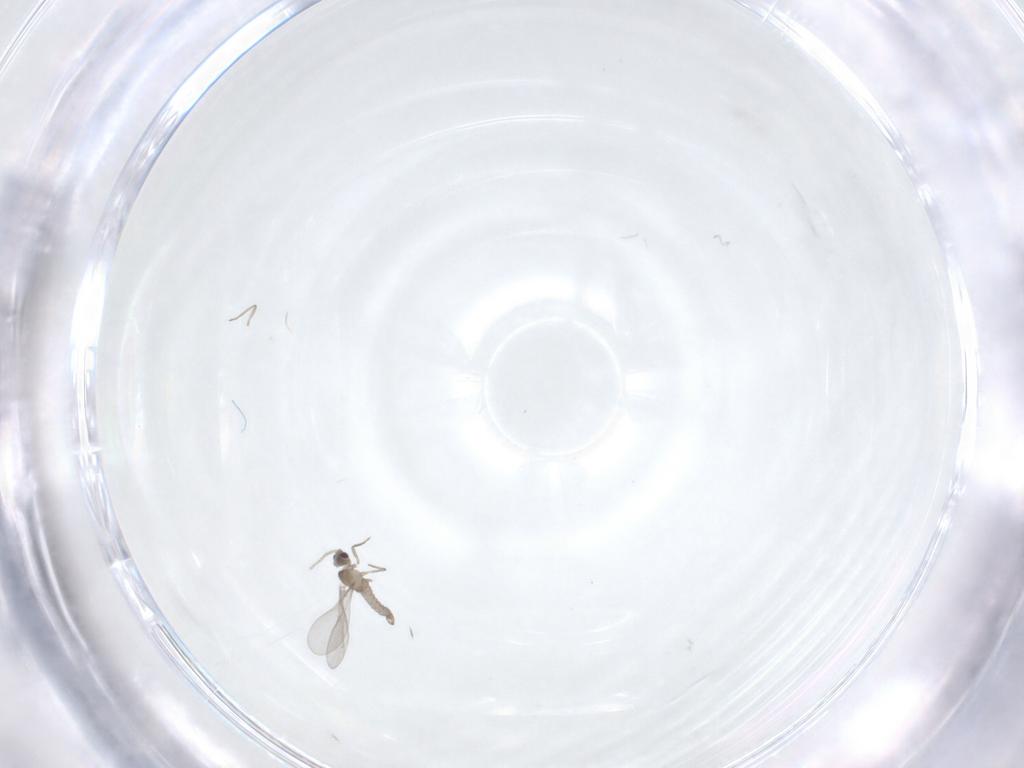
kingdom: Animalia
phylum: Arthropoda
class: Insecta
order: Diptera
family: Cecidomyiidae
